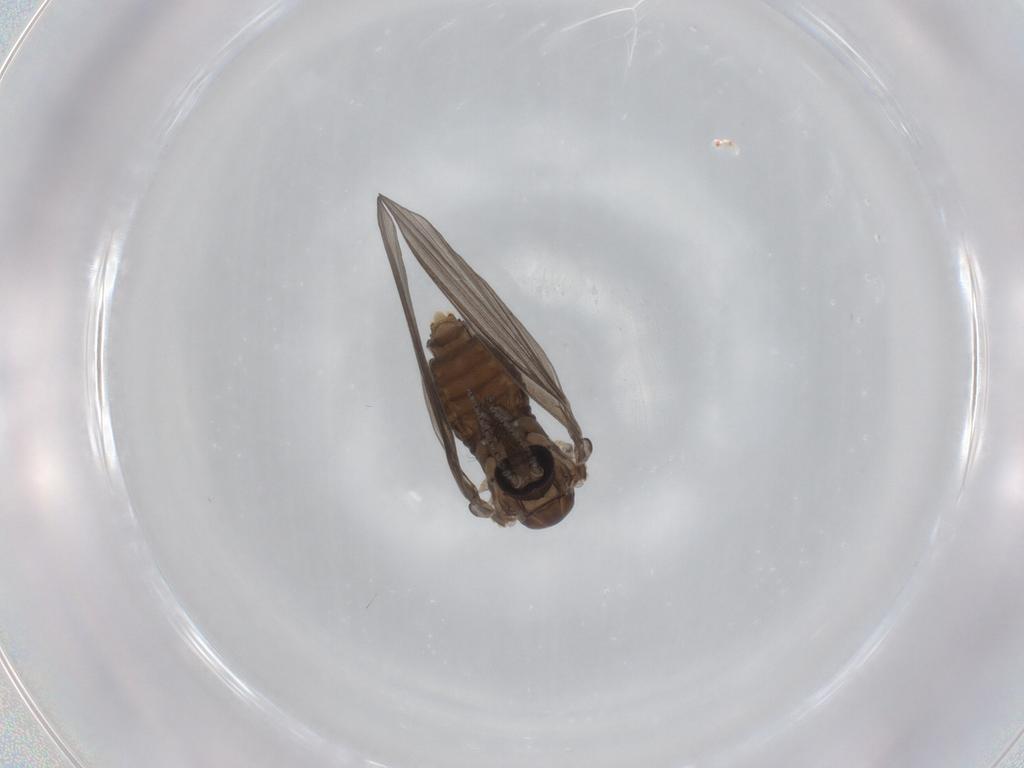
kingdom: Animalia
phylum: Arthropoda
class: Insecta
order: Diptera
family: Psychodidae
